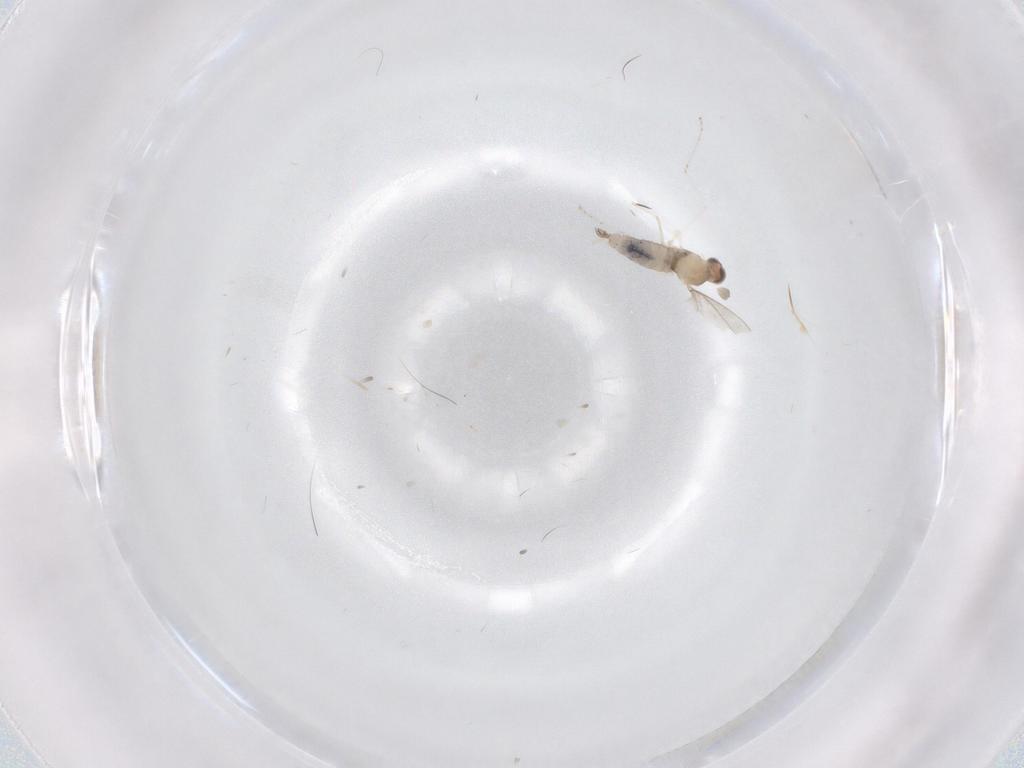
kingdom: Animalia
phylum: Arthropoda
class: Insecta
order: Diptera
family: Cecidomyiidae
